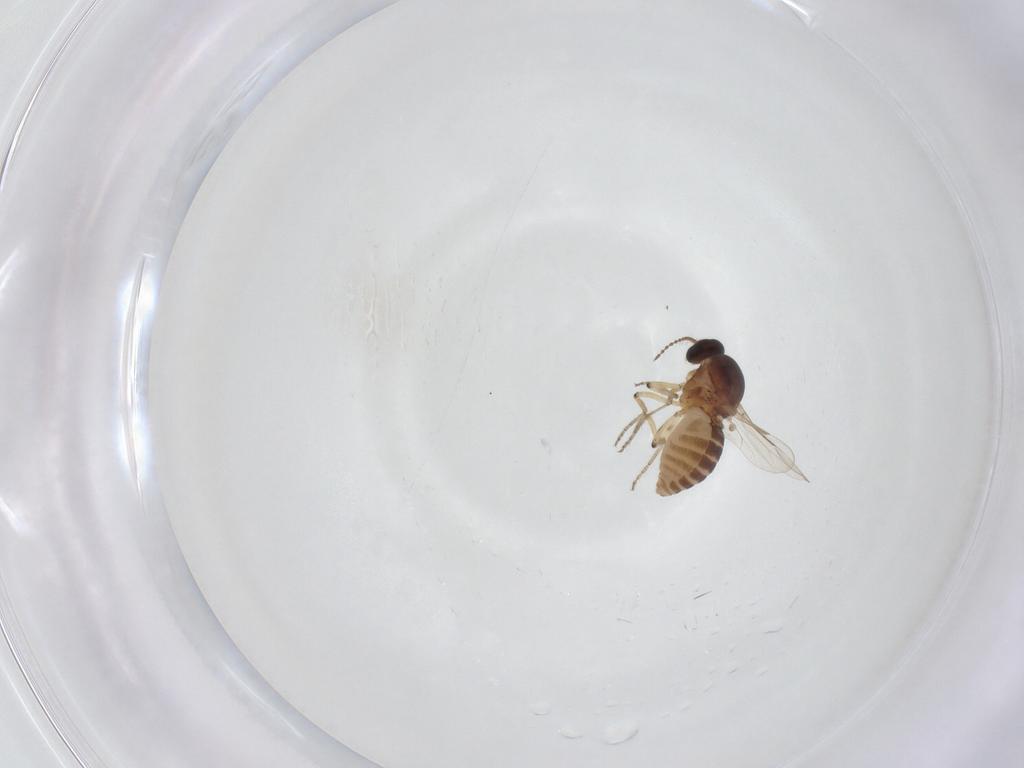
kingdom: Animalia
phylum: Arthropoda
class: Insecta
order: Diptera
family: Ceratopogonidae
